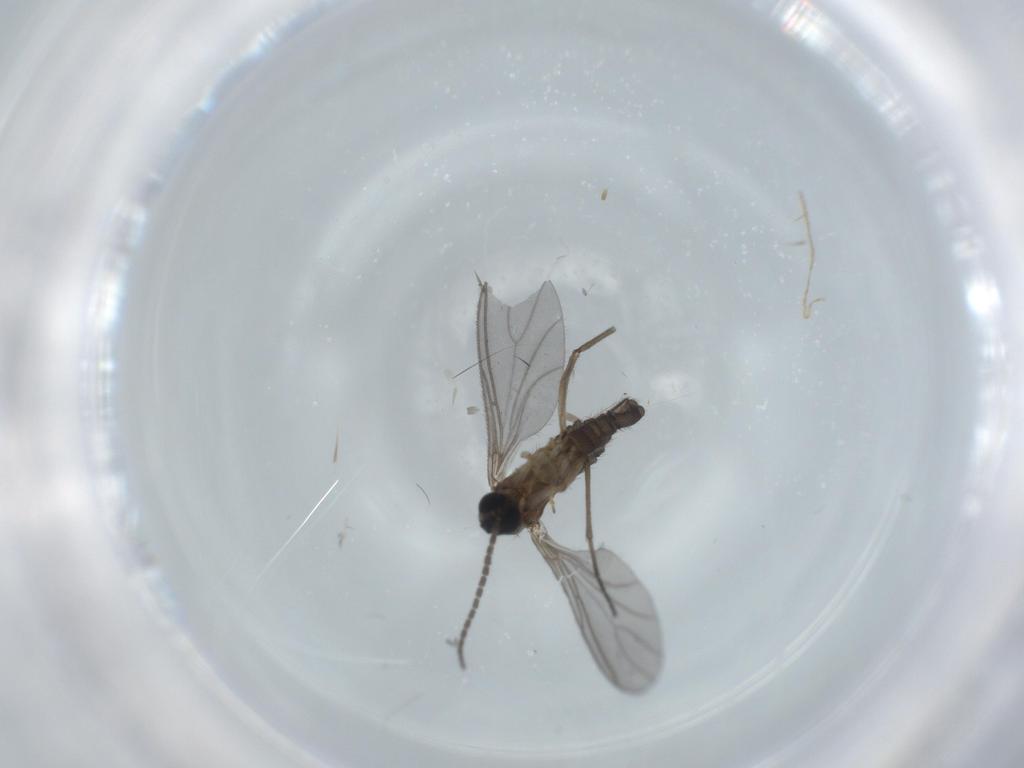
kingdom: Animalia
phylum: Arthropoda
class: Insecta
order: Diptera
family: Sciaridae
